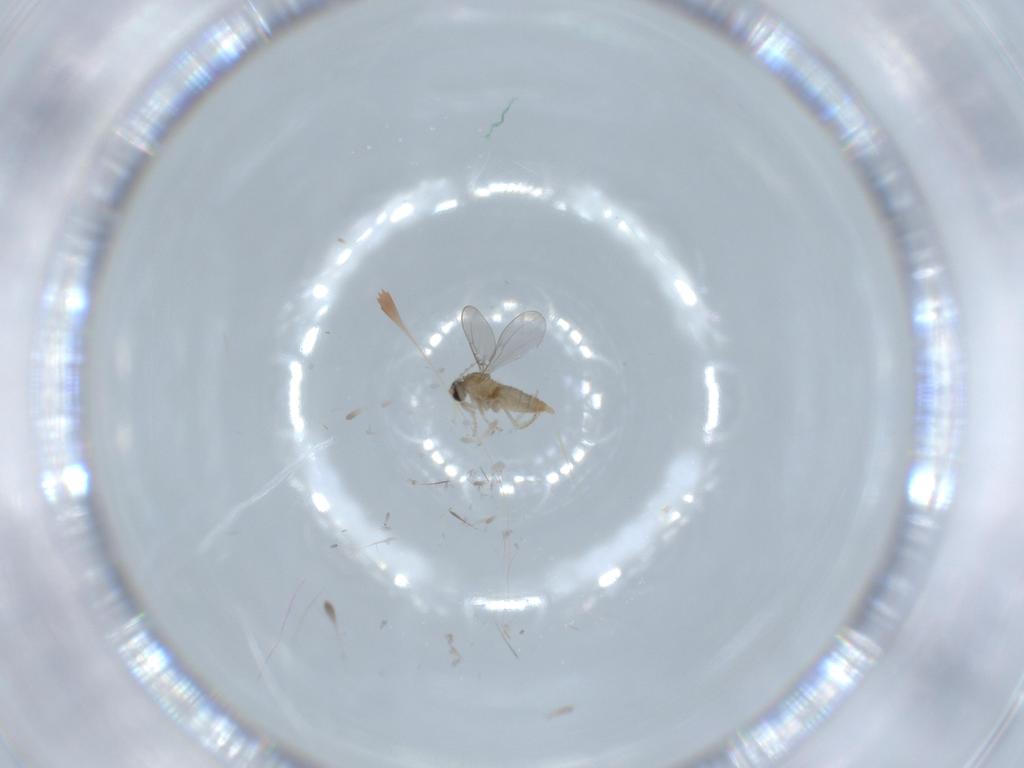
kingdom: Animalia
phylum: Arthropoda
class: Insecta
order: Diptera
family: Cecidomyiidae
